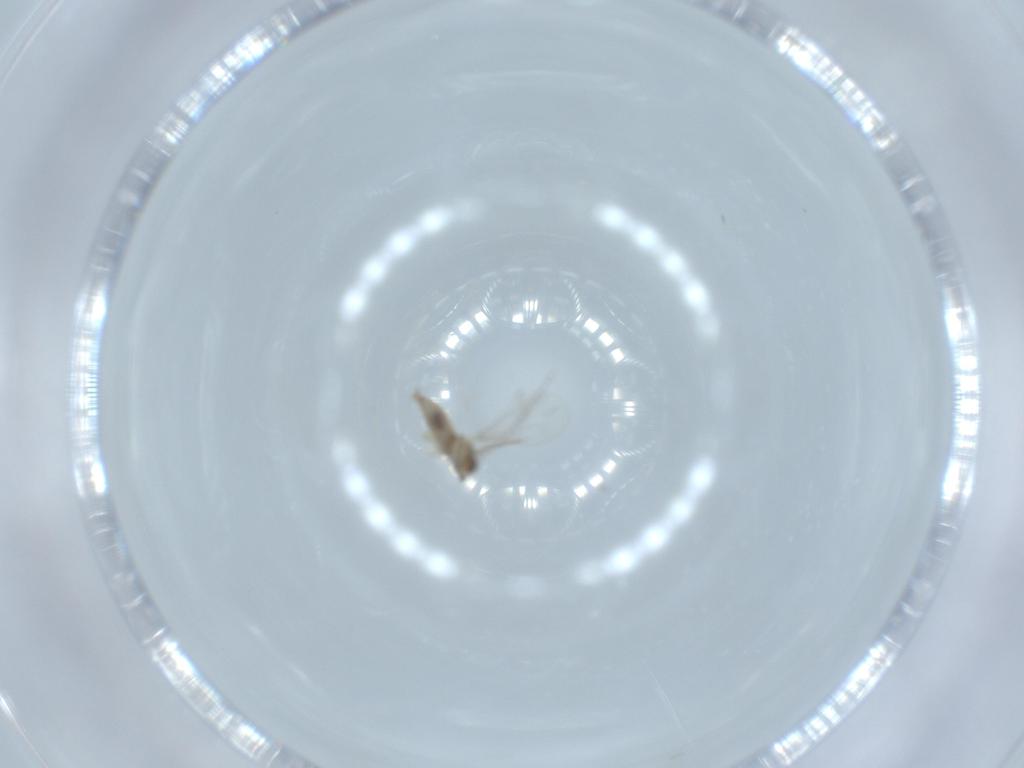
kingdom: Animalia
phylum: Arthropoda
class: Insecta
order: Diptera
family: Cecidomyiidae
